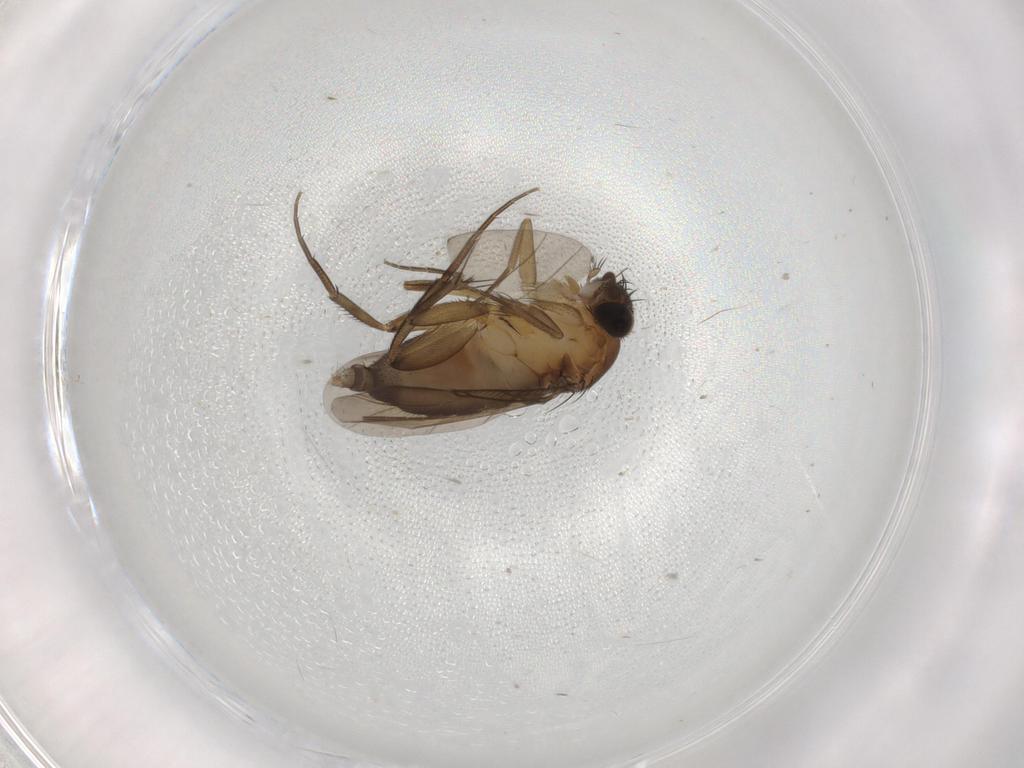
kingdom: Animalia
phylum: Arthropoda
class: Insecta
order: Diptera
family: Phoridae
